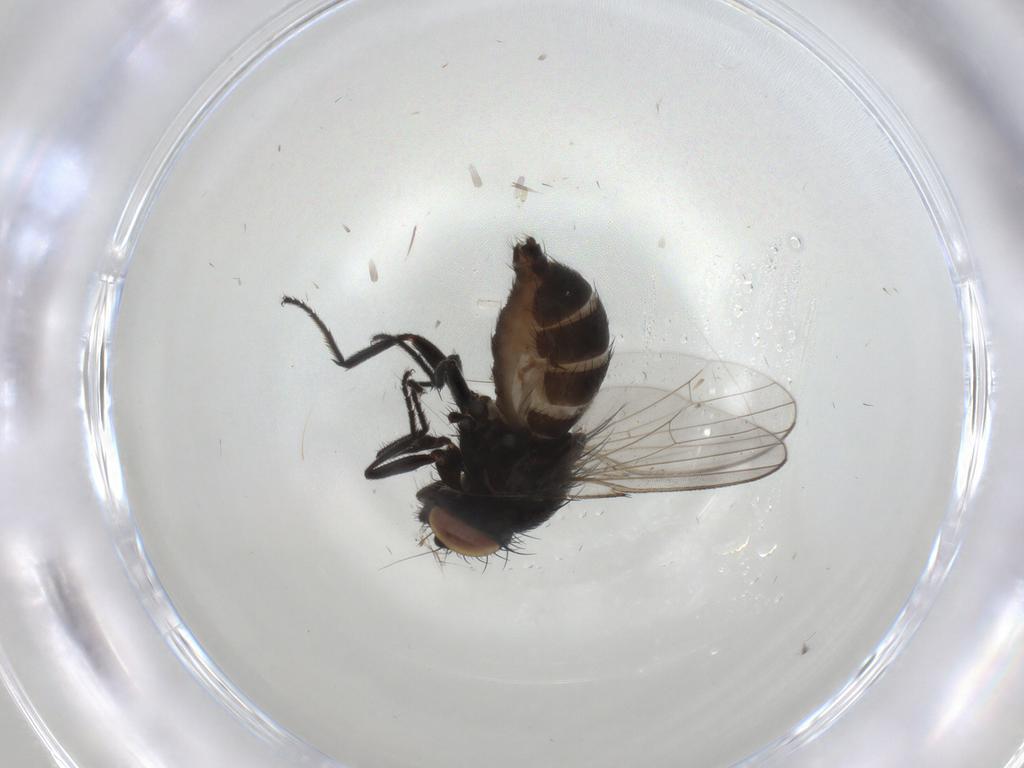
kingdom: Animalia
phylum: Arthropoda
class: Insecta
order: Diptera
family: Milichiidae
